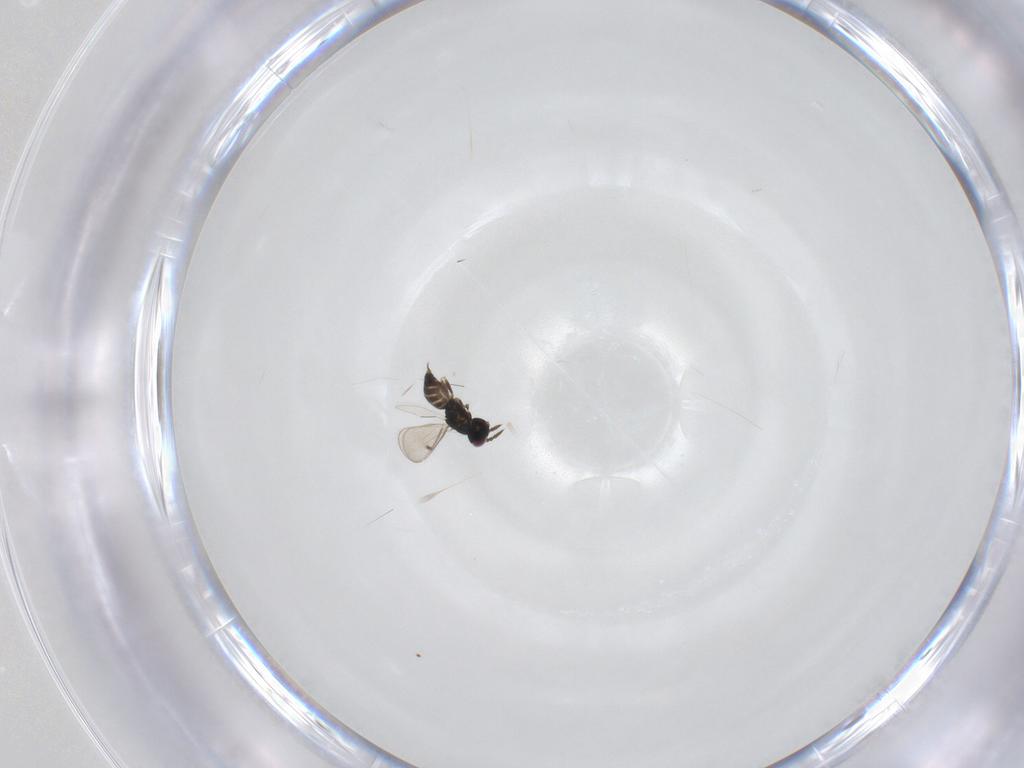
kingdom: Animalia
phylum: Arthropoda
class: Insecta
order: Hymenoptera
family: Eulophidae
